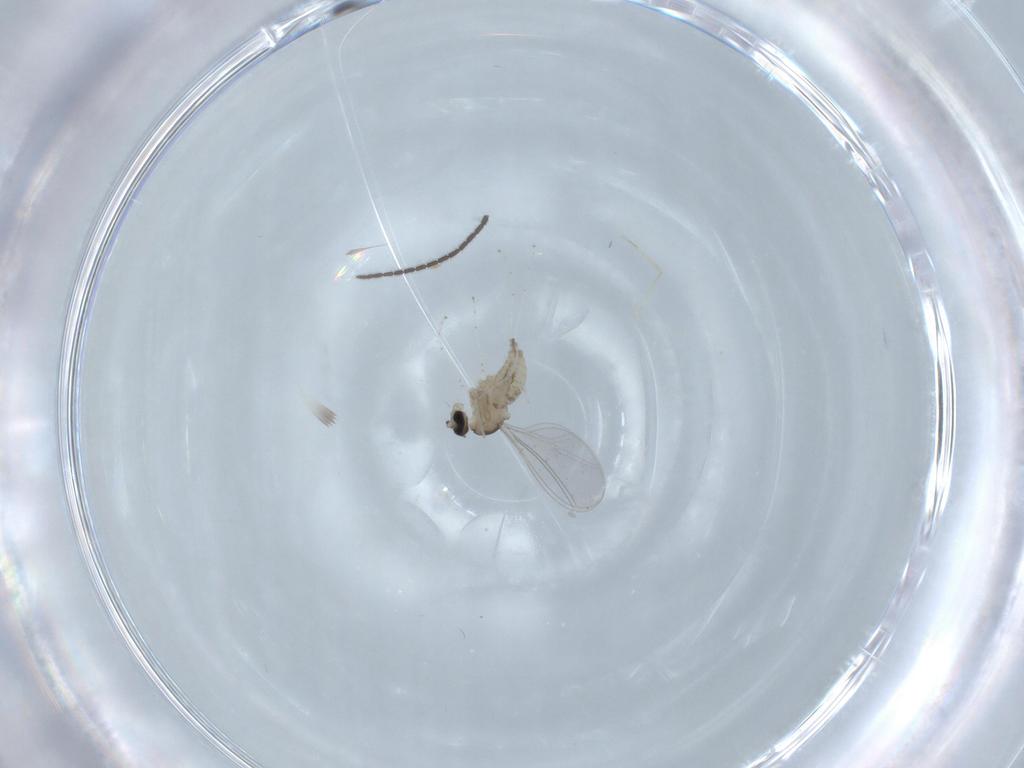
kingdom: Animalia
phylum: Arthropoda
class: Insecta
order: Diptera
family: Cecidomyiidae
